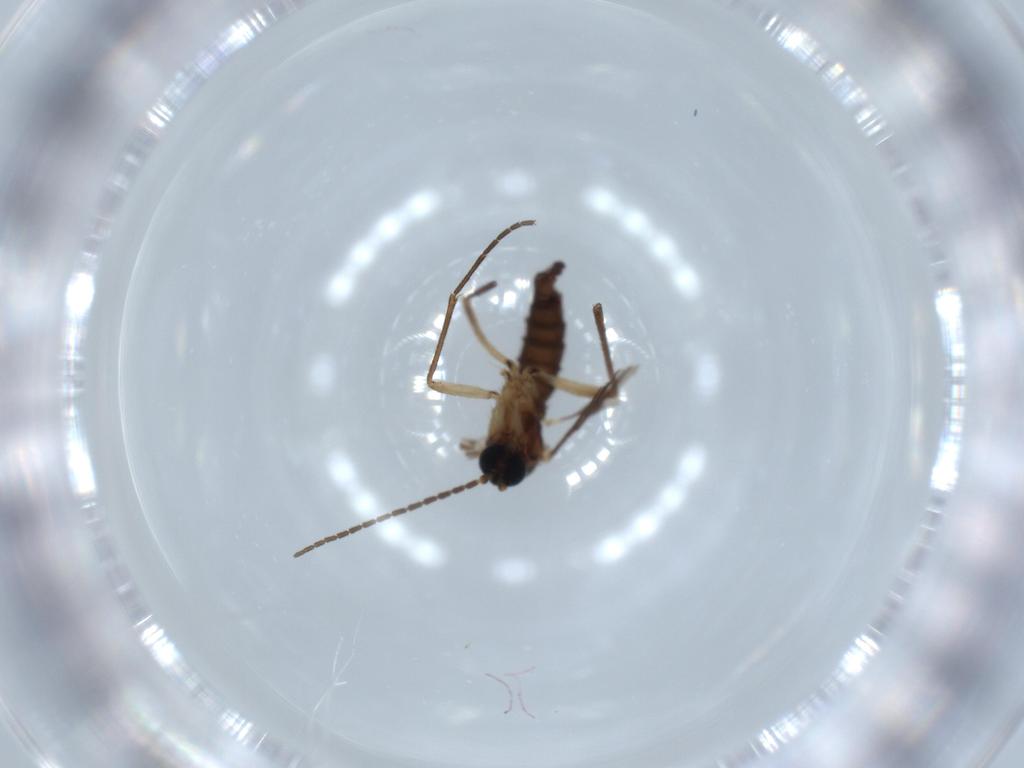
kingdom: Animalia
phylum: Arthropoda
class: Insecta
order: Diptera
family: Sciaridae
